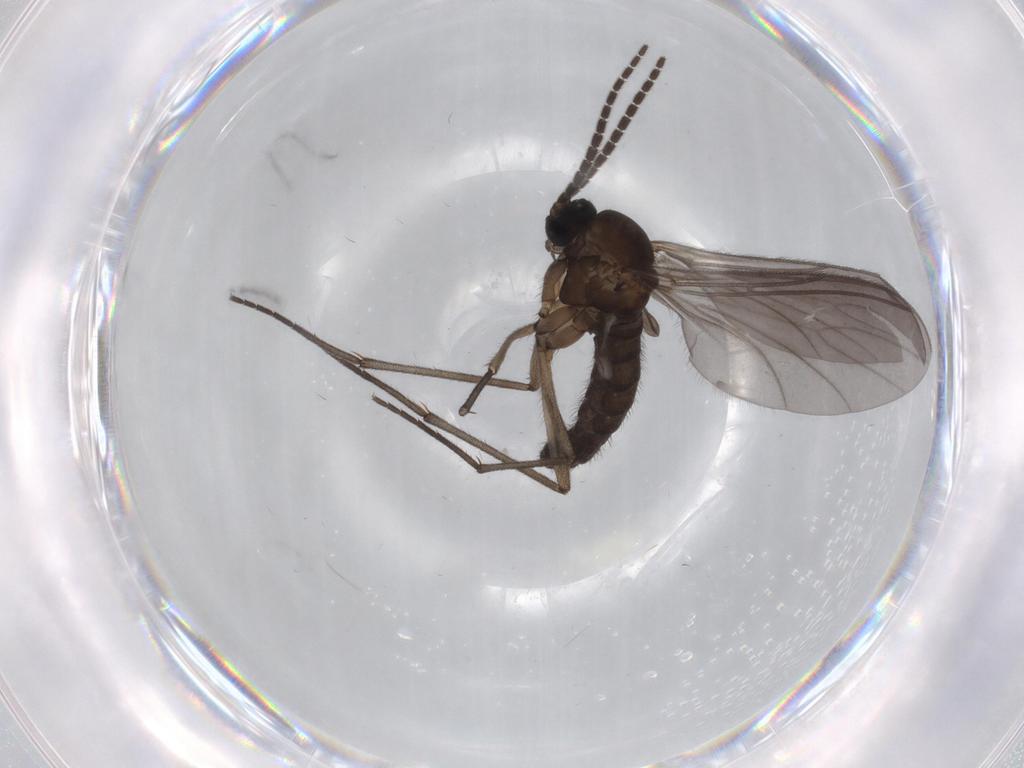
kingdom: Animalia
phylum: Arthropoda
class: Insecta
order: Diptera
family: Sciaridae
